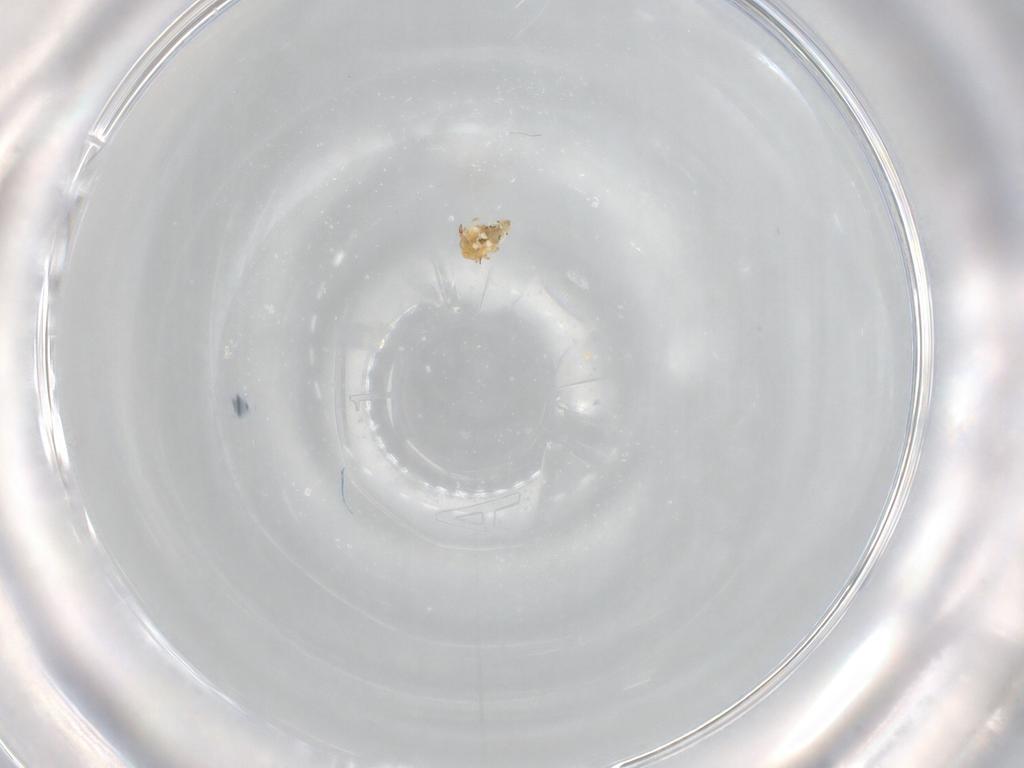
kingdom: Animalia
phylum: Arthropoda
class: Collembola
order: Symphypleona
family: Bourletiellidae
